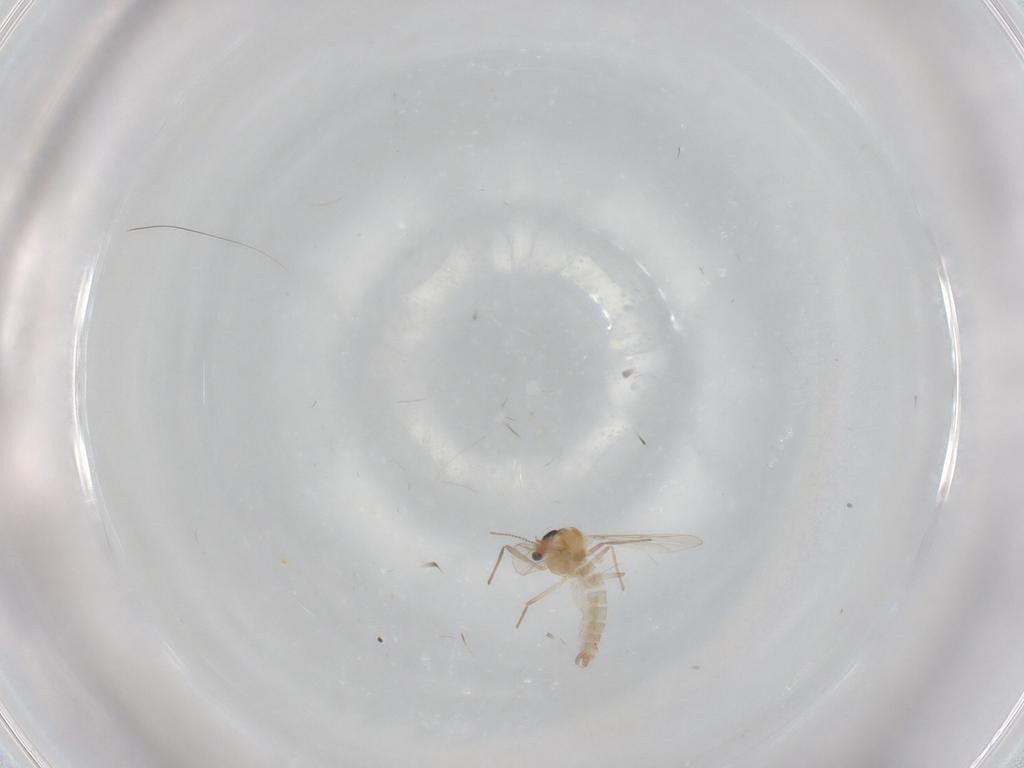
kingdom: Animalia
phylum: Arthropoda
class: Insecta
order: Diptera
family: Chironomidae
